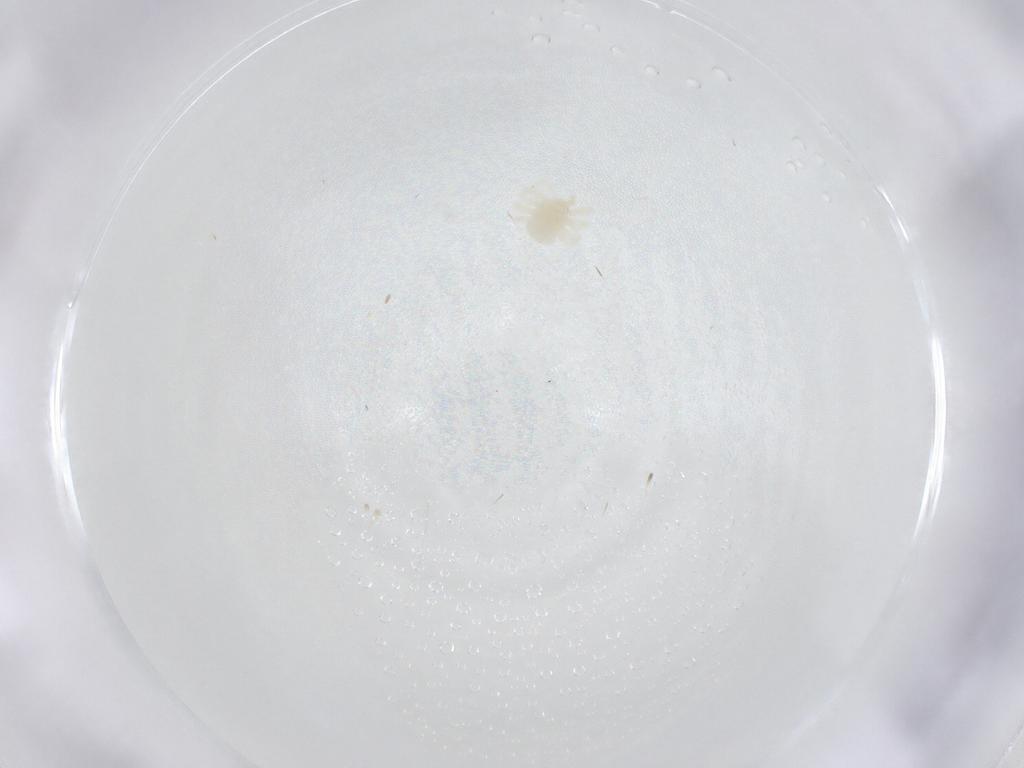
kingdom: Animalia
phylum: Arthropoda
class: Arachnida
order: Trombidiformes
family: Anystidae
